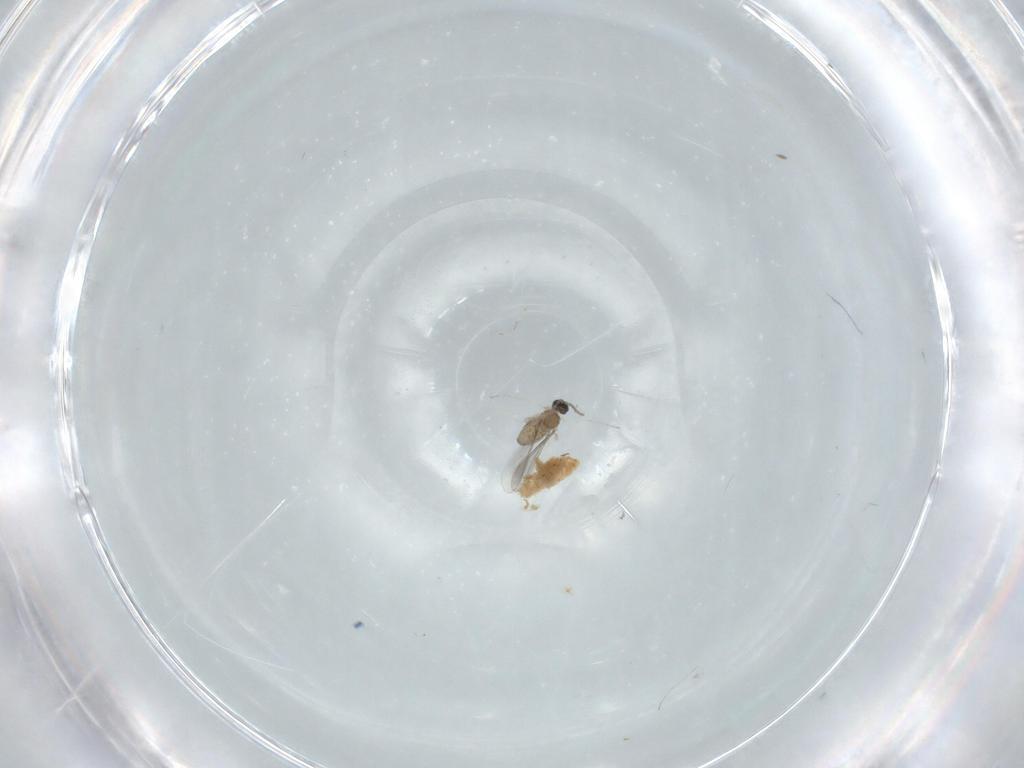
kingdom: Animalia
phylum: Arthropoda
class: Insecta
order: Diptera
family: Cecidomyiidae
